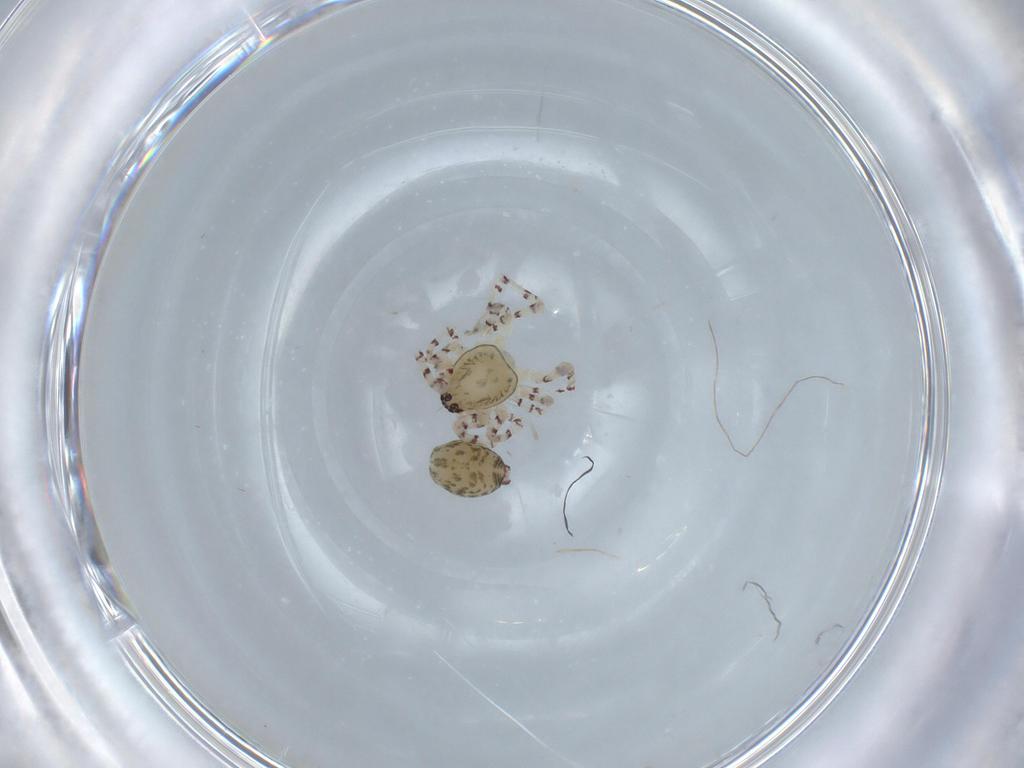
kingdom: Animalia
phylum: Arthropoda
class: Arachnida
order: Araneae
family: Anyphaenidae
